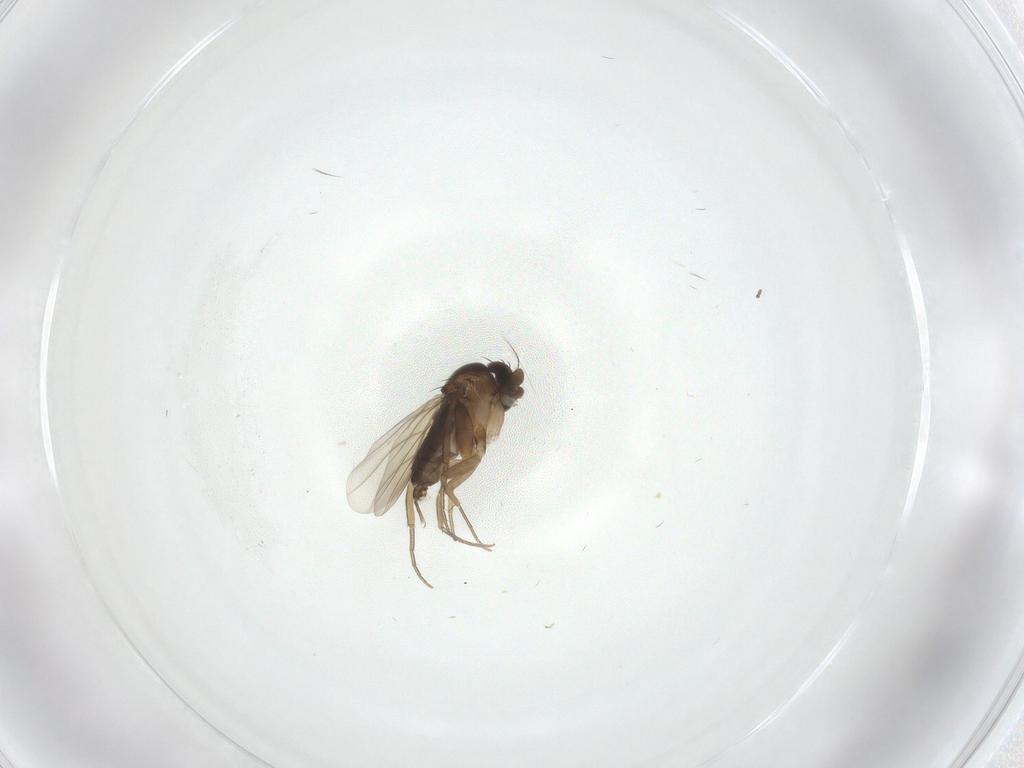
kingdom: Animalia
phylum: Arthropoda
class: Insecta
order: Diptera
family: Cecidomyiidae
